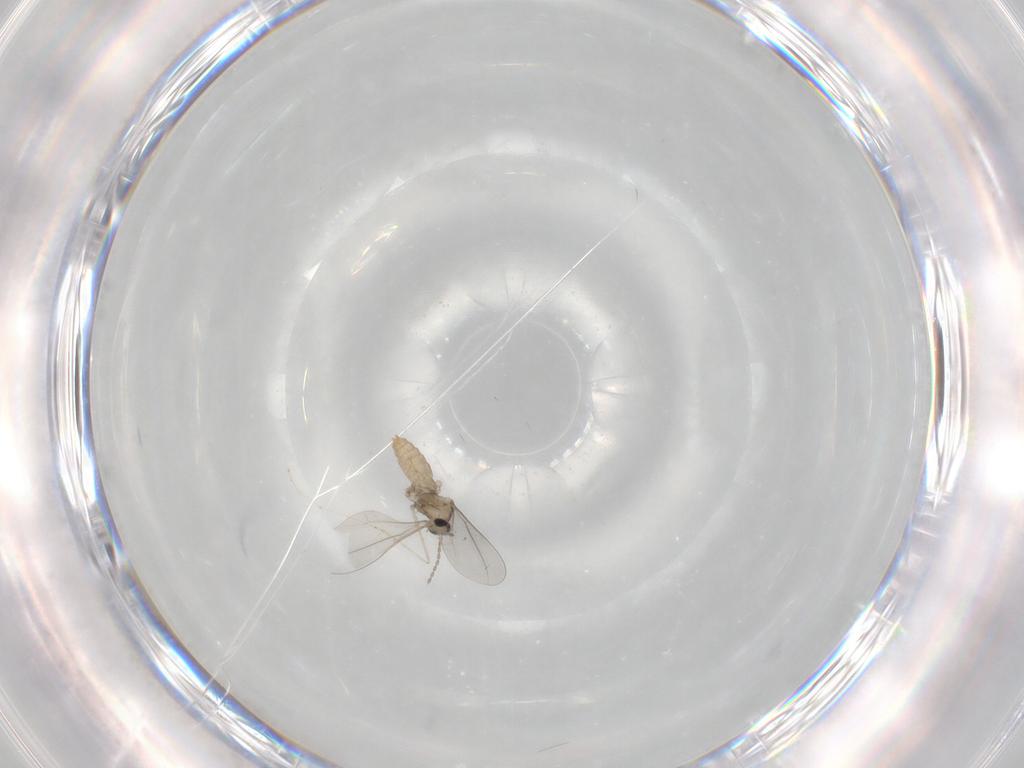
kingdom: Animalia
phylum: Arthropoda
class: Insecta
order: Diptera
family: Cecidomyiidae
